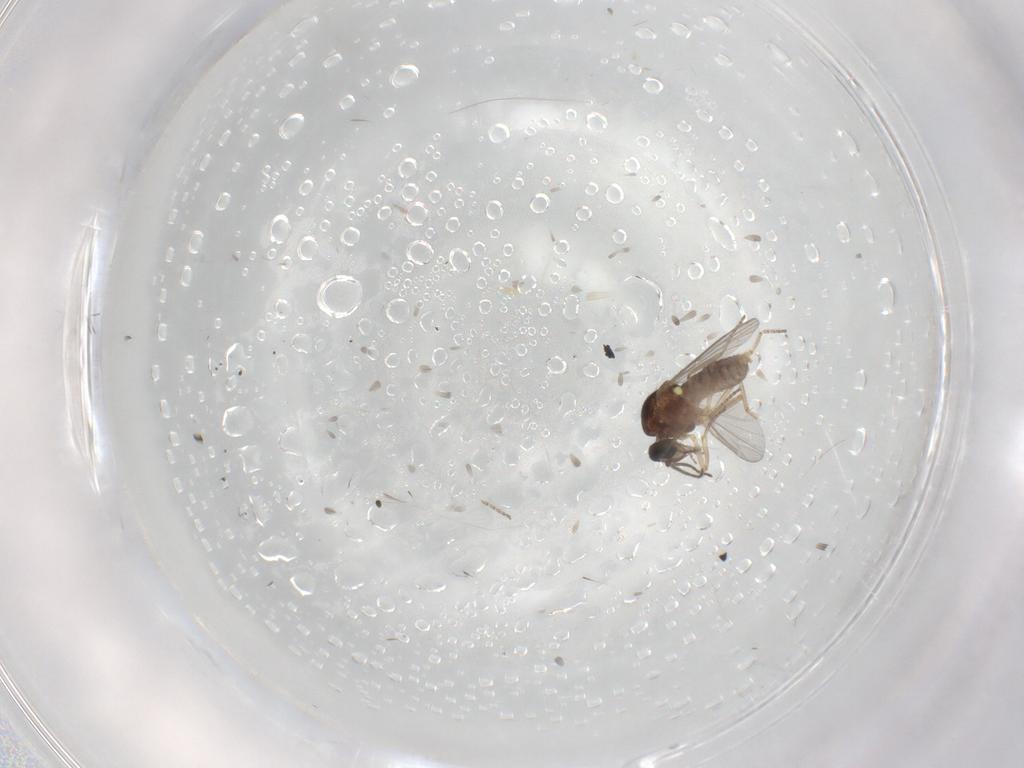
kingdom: Animalia
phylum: Arthropoda
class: Insecta
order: Diptera
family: Ceratopogonidae
